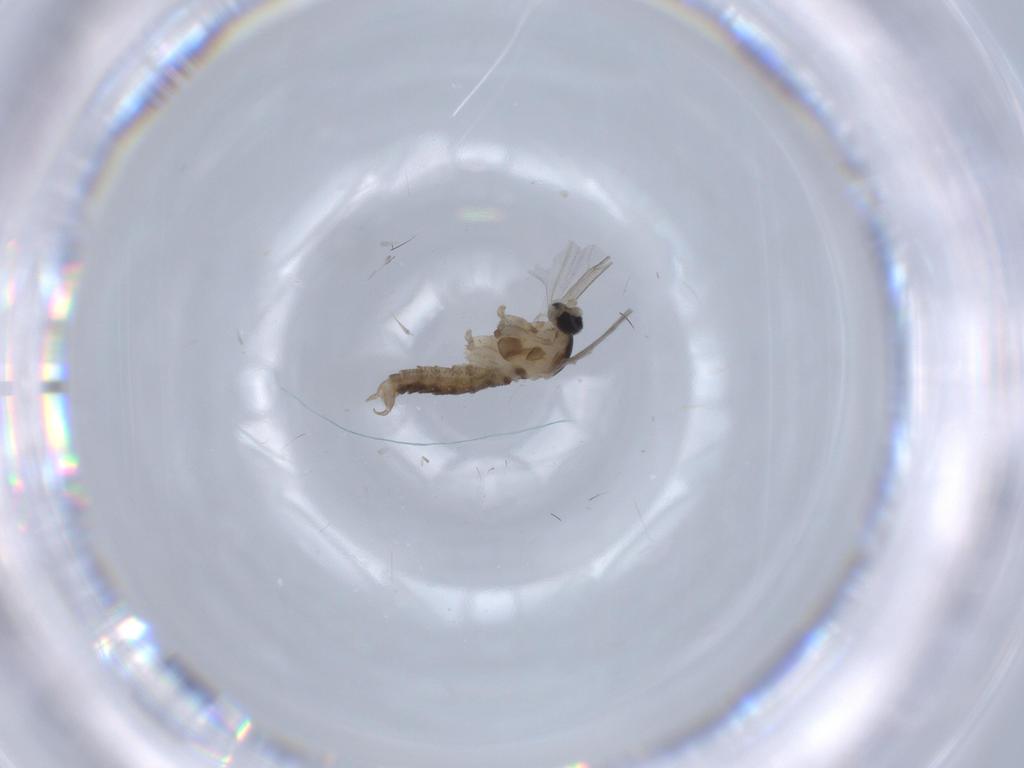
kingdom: Animalia
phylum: Arthropoda
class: Insecta
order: Diptera
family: Cecidomyiidae
